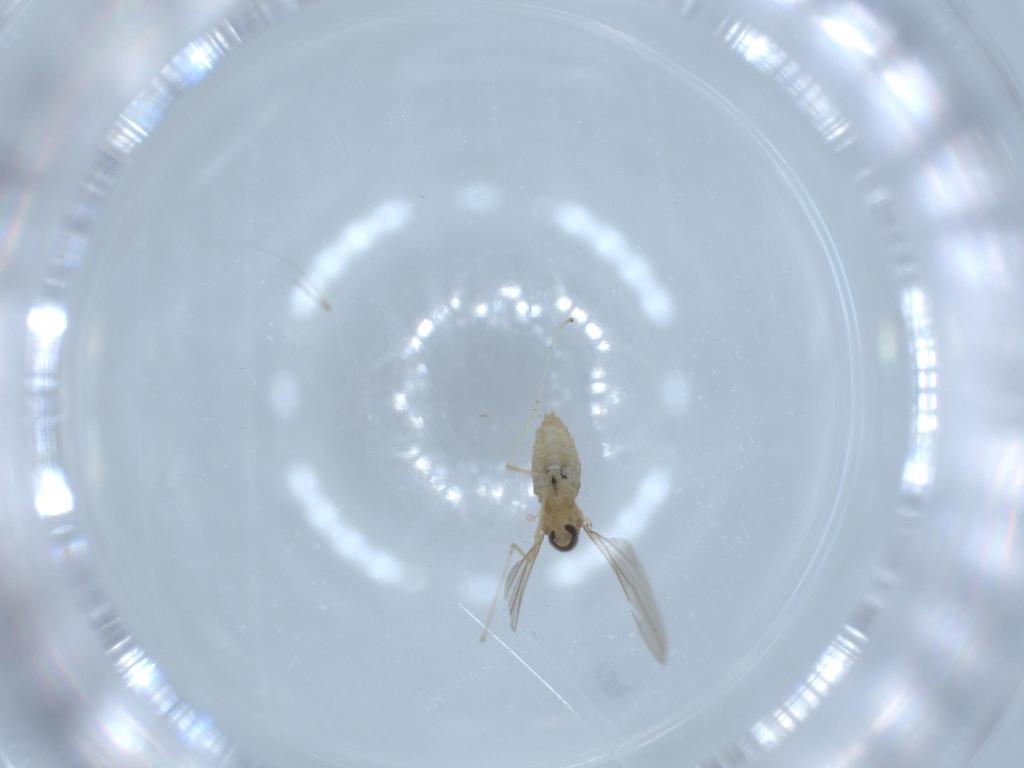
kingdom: Animalia
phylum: Arthropoda
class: Insecta
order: Diptera
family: Cecidomyiidae
